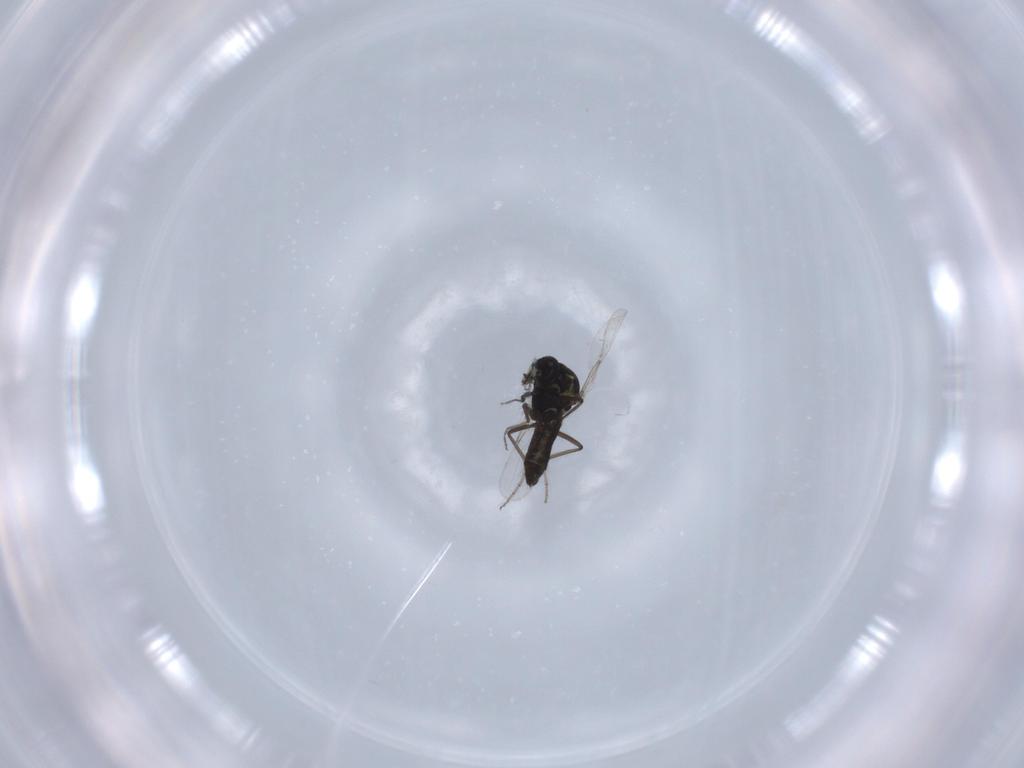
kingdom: Animalia
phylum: Arthropoda
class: Insecta
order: Diptera
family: Ceratopogonidae
